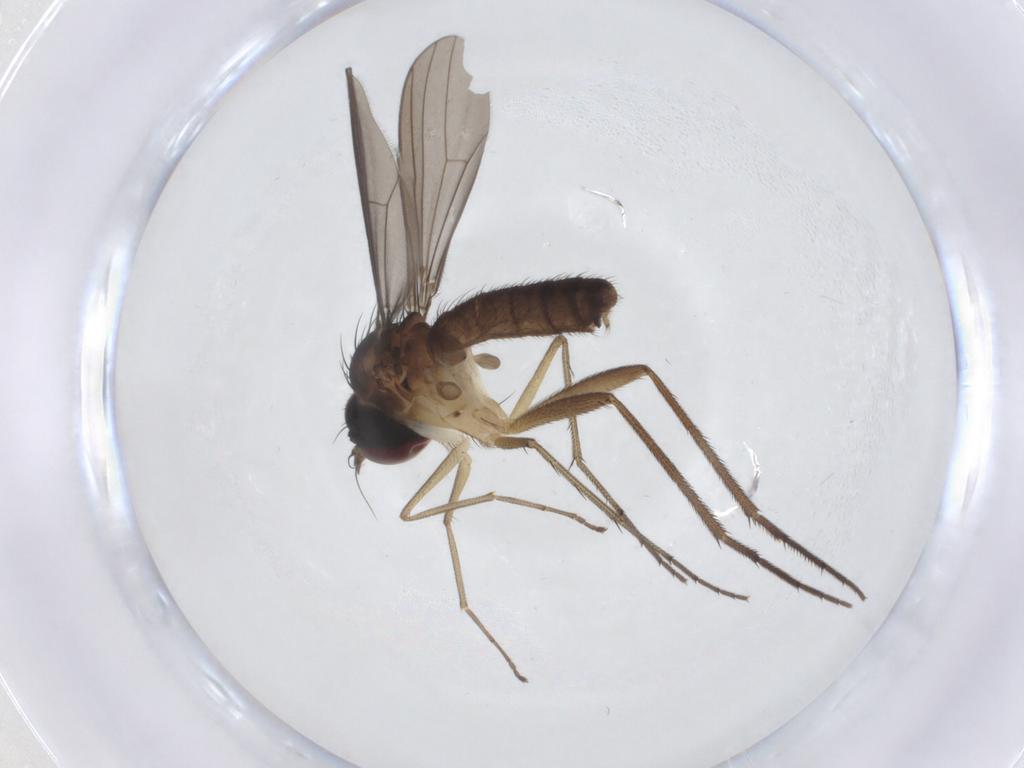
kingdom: Animalia
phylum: Arthropoda
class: Insecta
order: Diptera
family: Dolichopodidae
